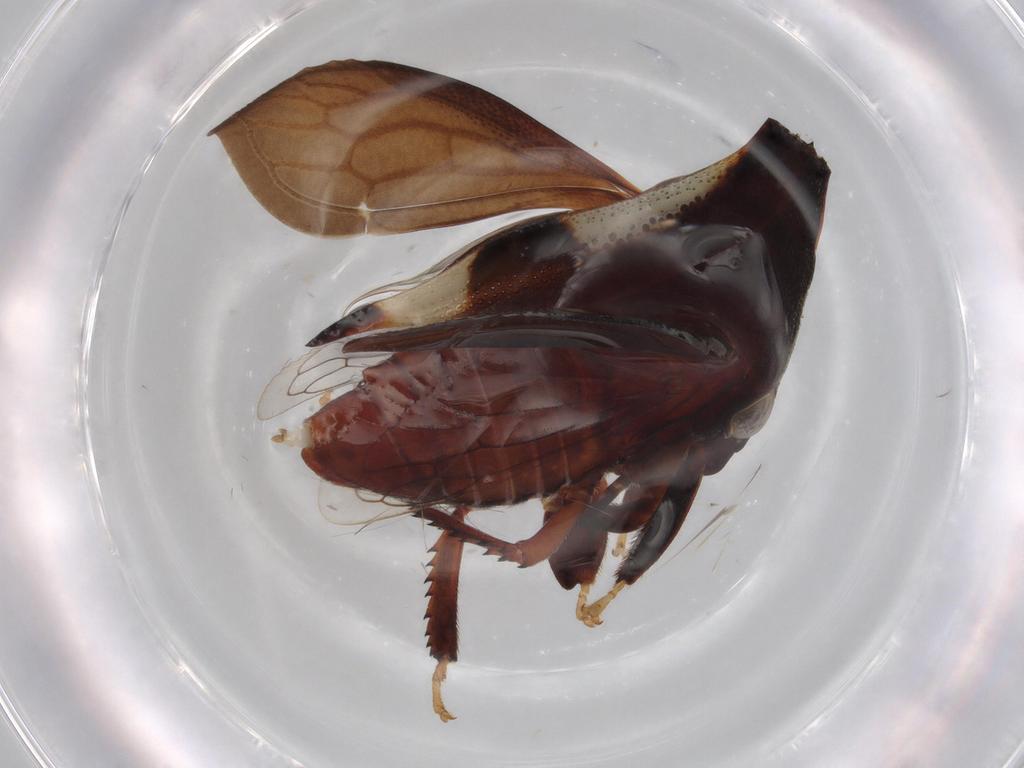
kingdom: Animalia
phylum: Arthropoda
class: Insecta
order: Hemiptera
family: Membracidae
